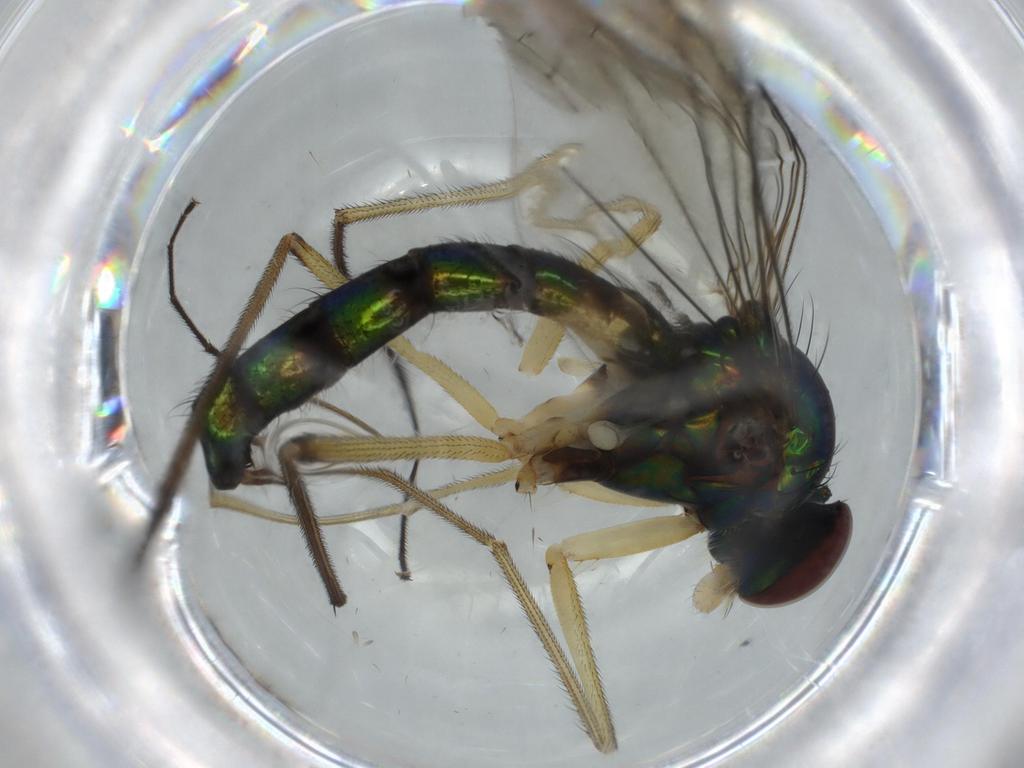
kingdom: Animalia
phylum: Arthropoda
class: Insecta
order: Diptera
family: Dolichopodidae
